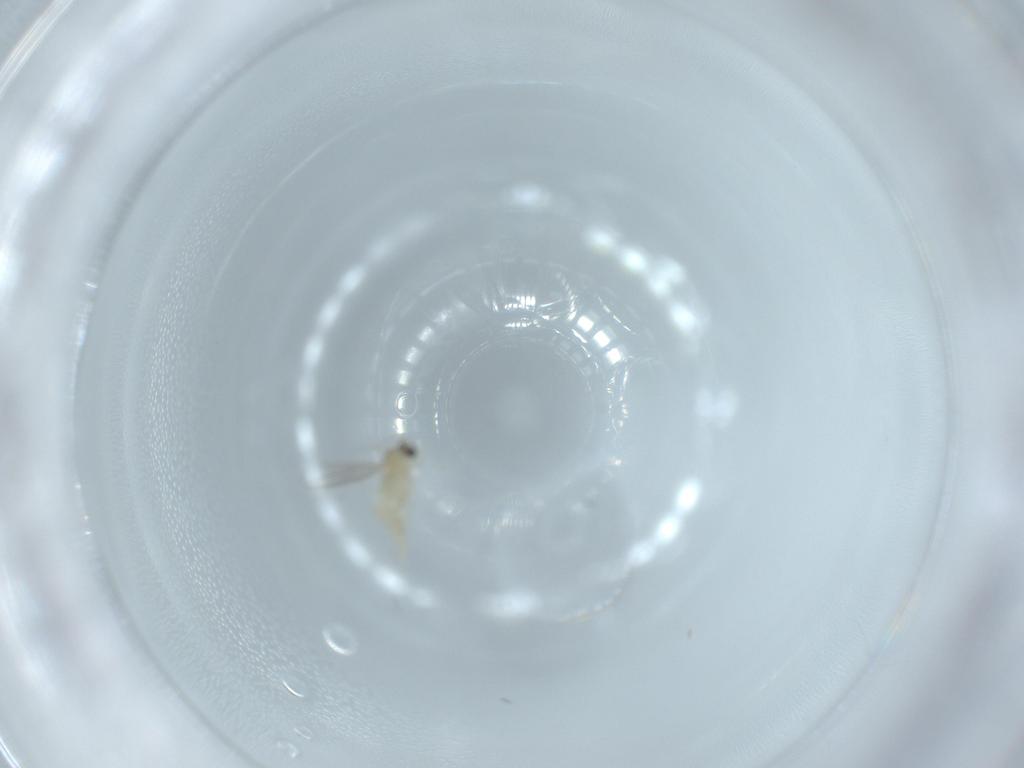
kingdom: Animalia
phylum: Arthropoda
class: Insecta
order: Diptera
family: Cecidomyiidae
